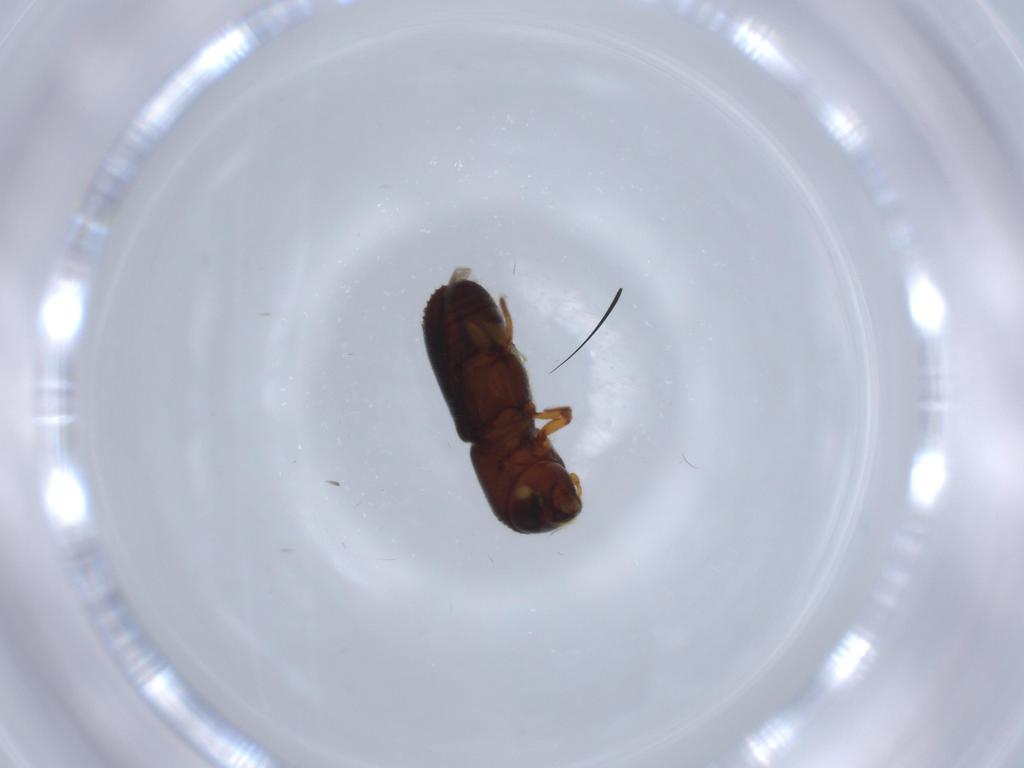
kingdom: Animalia
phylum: Arthropoda
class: Insecta
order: Coleoptera
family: Curculionidae
